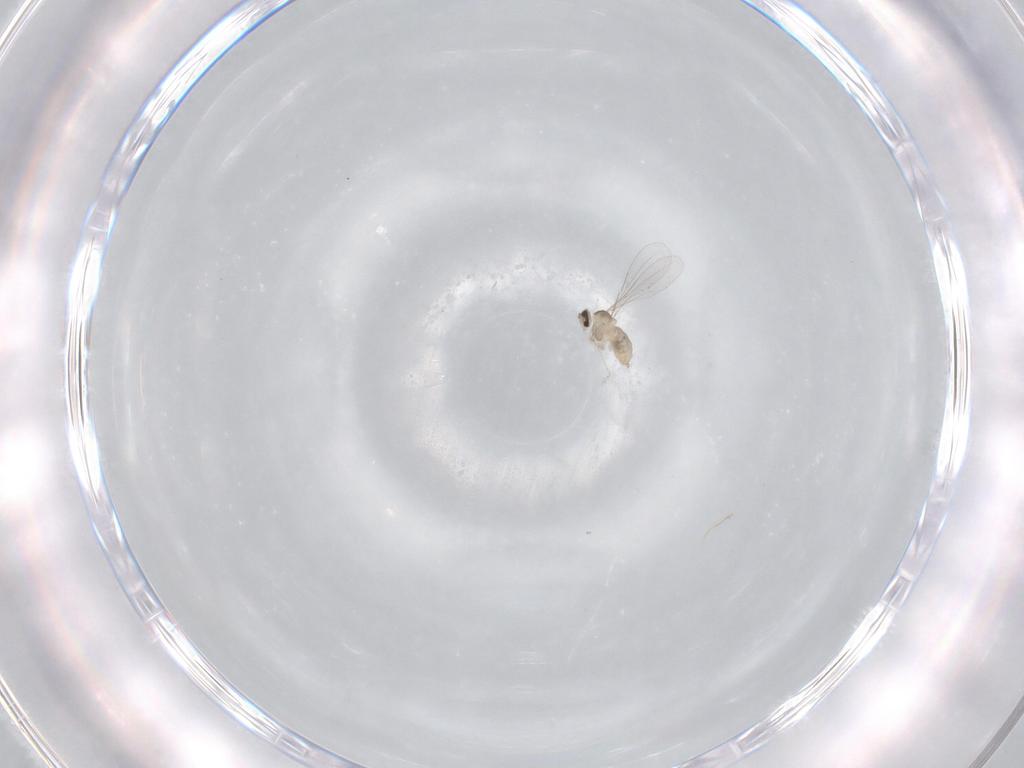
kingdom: Animalia
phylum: Arthropoda
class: Insecta
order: Diptera
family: Cecidomyiidae
